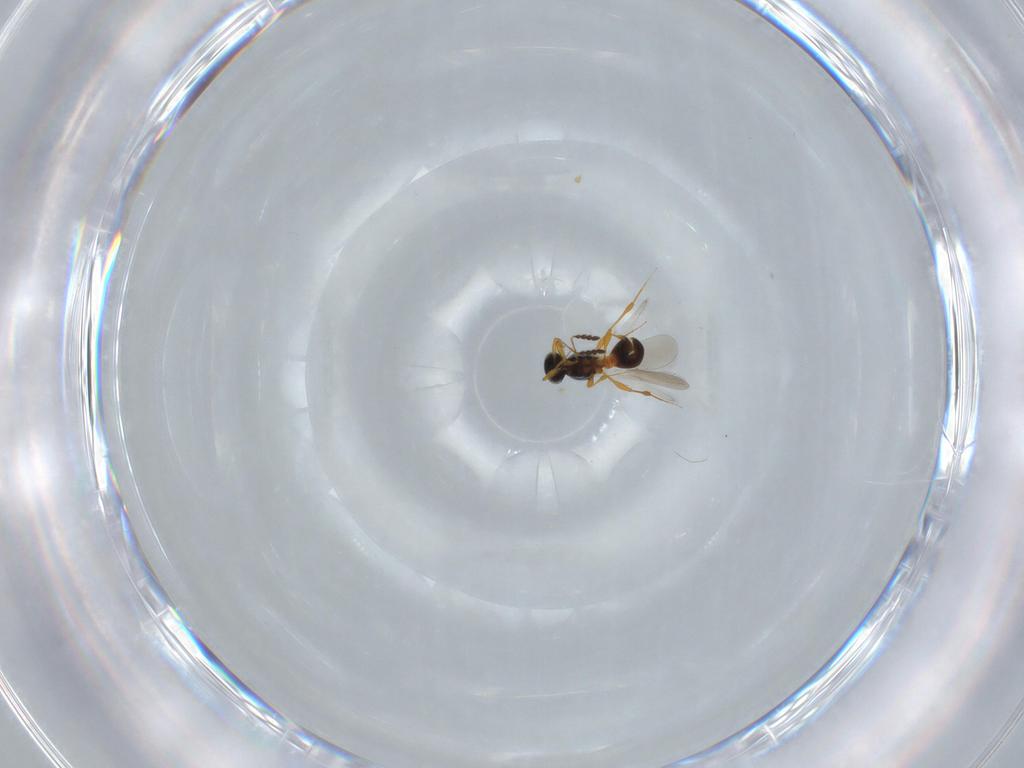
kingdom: Animalia
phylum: Arthropoda
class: Insecta
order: Hymenoptera
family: Platygastridae
